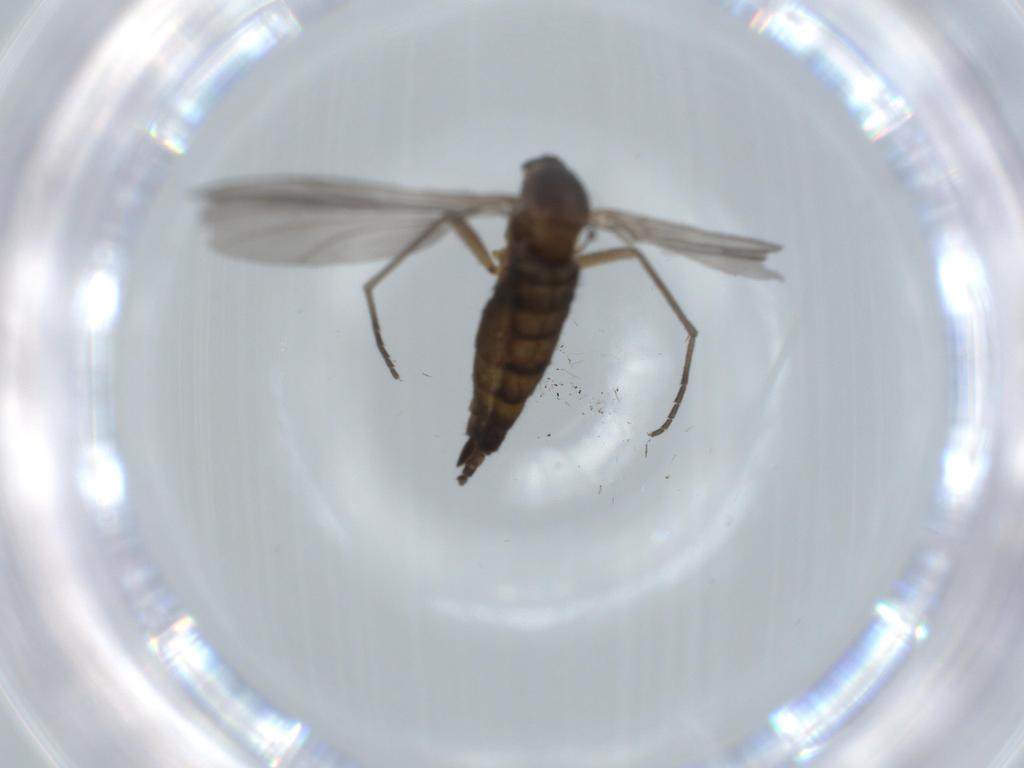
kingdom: Animalia
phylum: Arthropoda
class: Insecta
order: Diptera
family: Sciaridae
